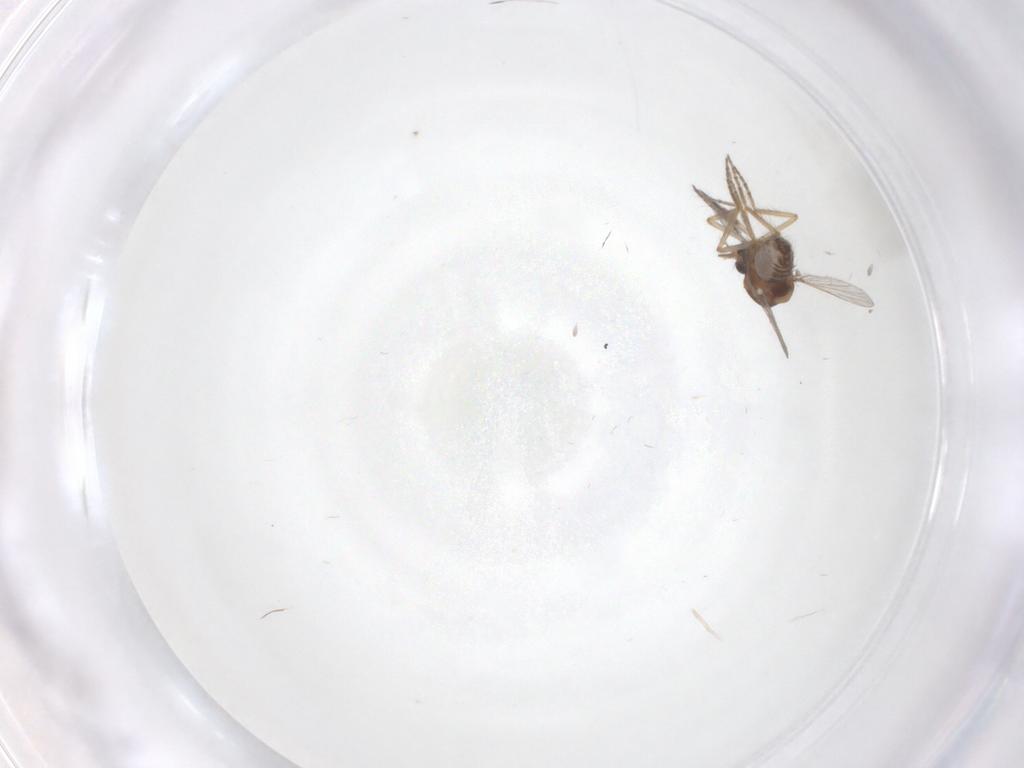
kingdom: Animalia
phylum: Arthropoda
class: Insecta
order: Diptera
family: Ceratopogonidae
